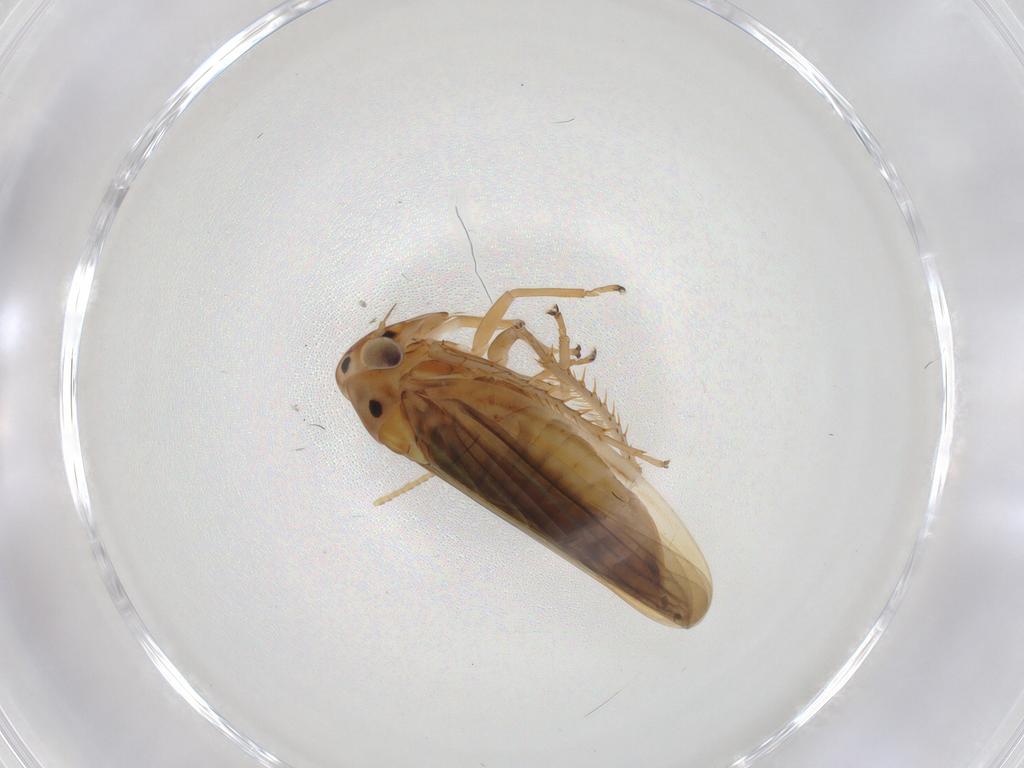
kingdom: Animalia
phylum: Arthropoda
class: Insecta
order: Hemiptera
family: Cicadellidae
